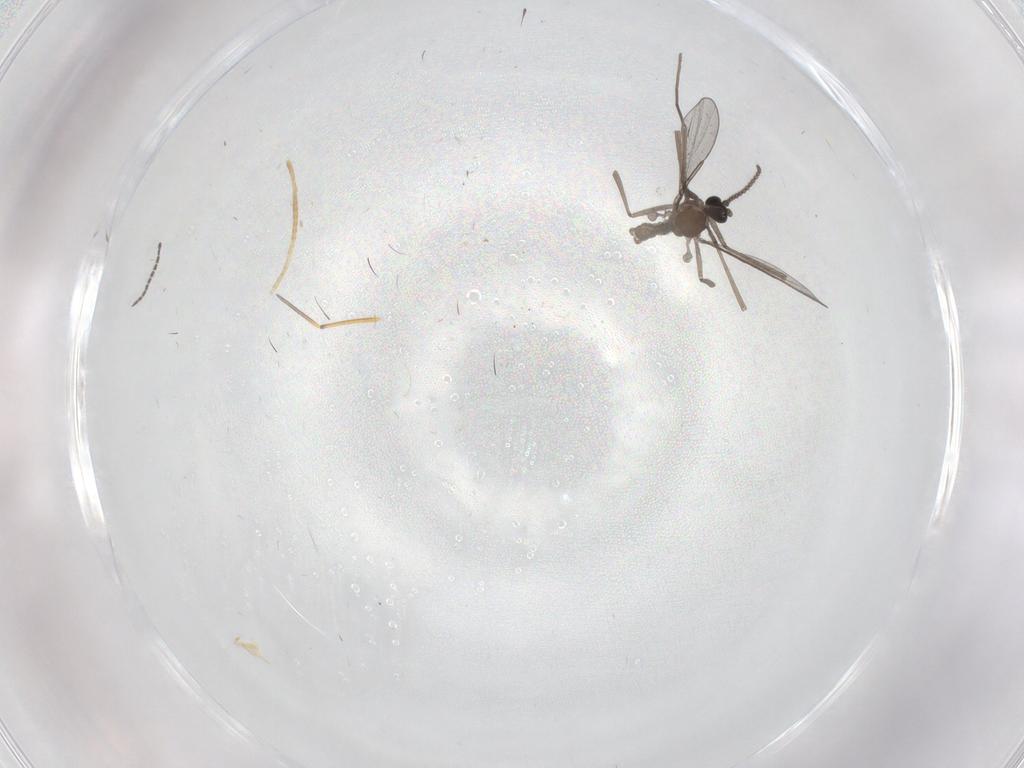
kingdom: Animalia
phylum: Arthropoda
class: Insecta
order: Diptera
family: Cecidomyiidae
